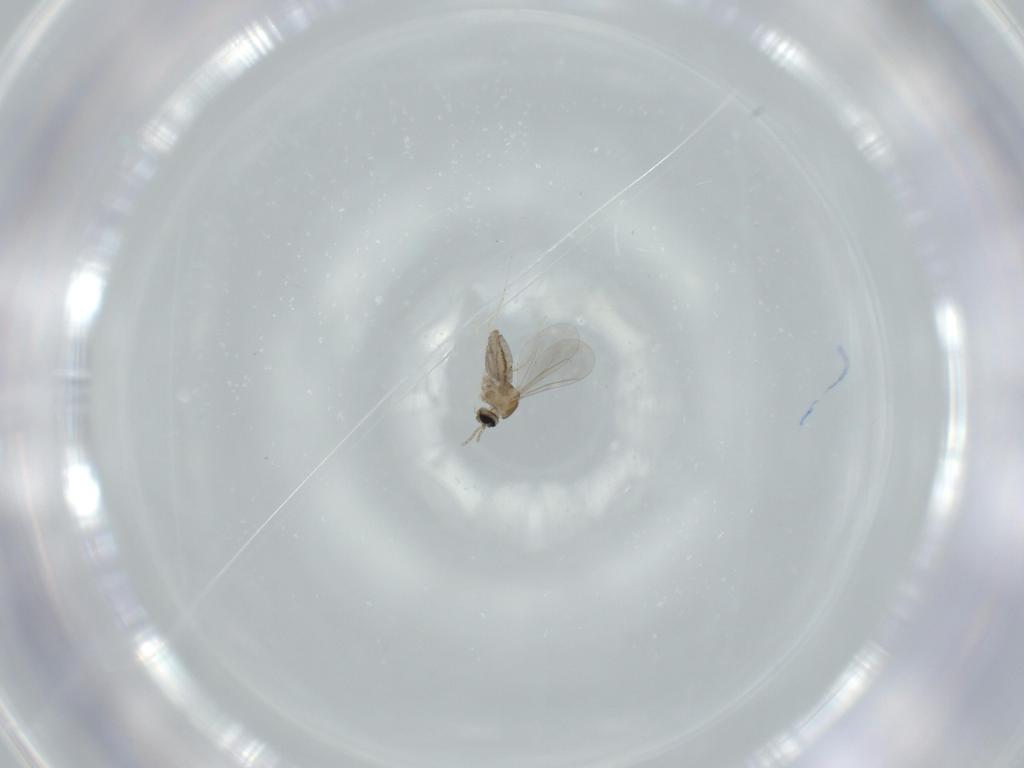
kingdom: Animalia
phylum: Arthropoda
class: Insecta
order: Diptera
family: Cecidomyiidae
